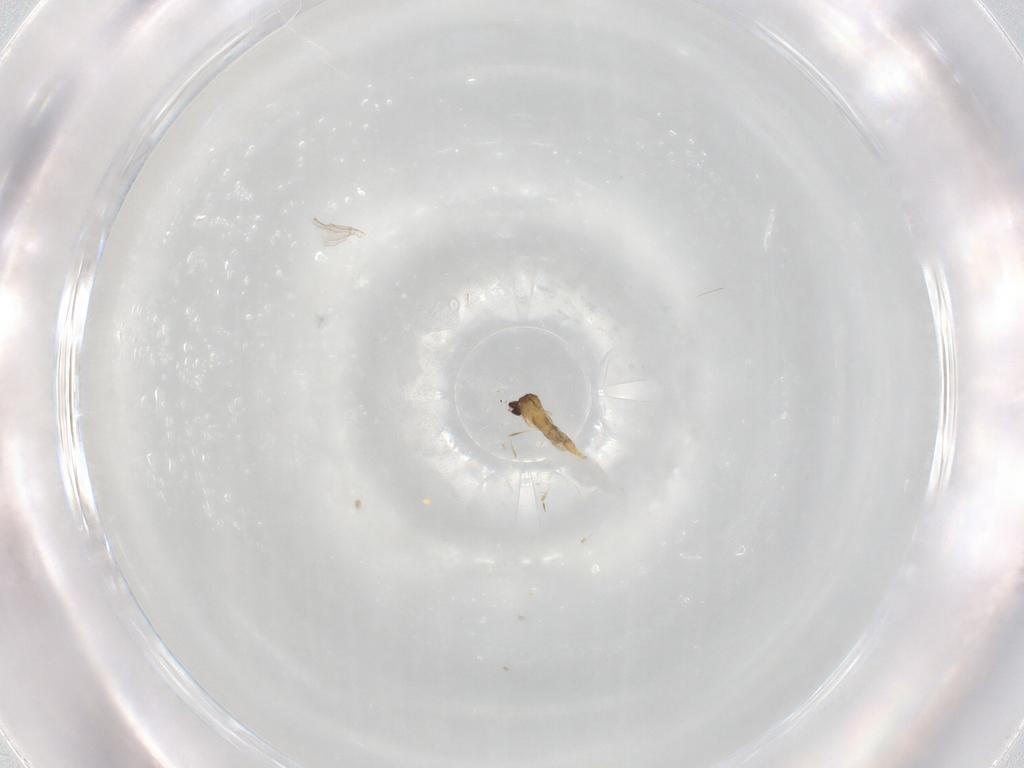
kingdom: Animalia
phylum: Arthropoda
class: Insecta
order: Diptera
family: Cecidomyiidae
